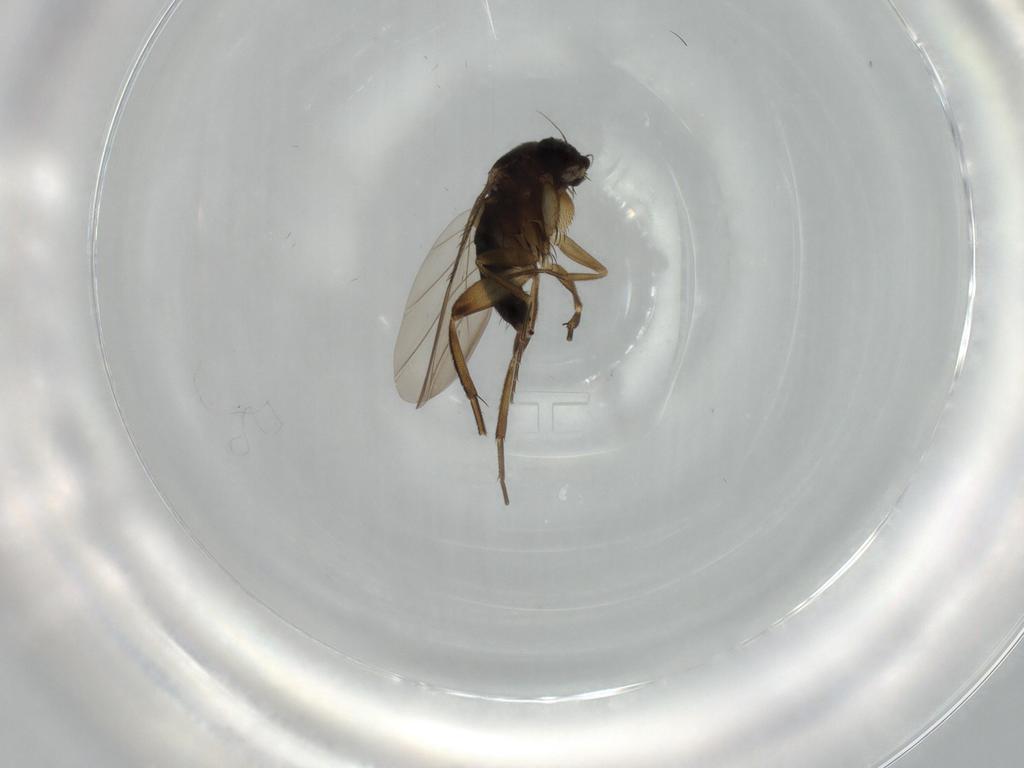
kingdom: Animalia
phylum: Arthropoda
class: Insecta
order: Diptera
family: Phoridae
